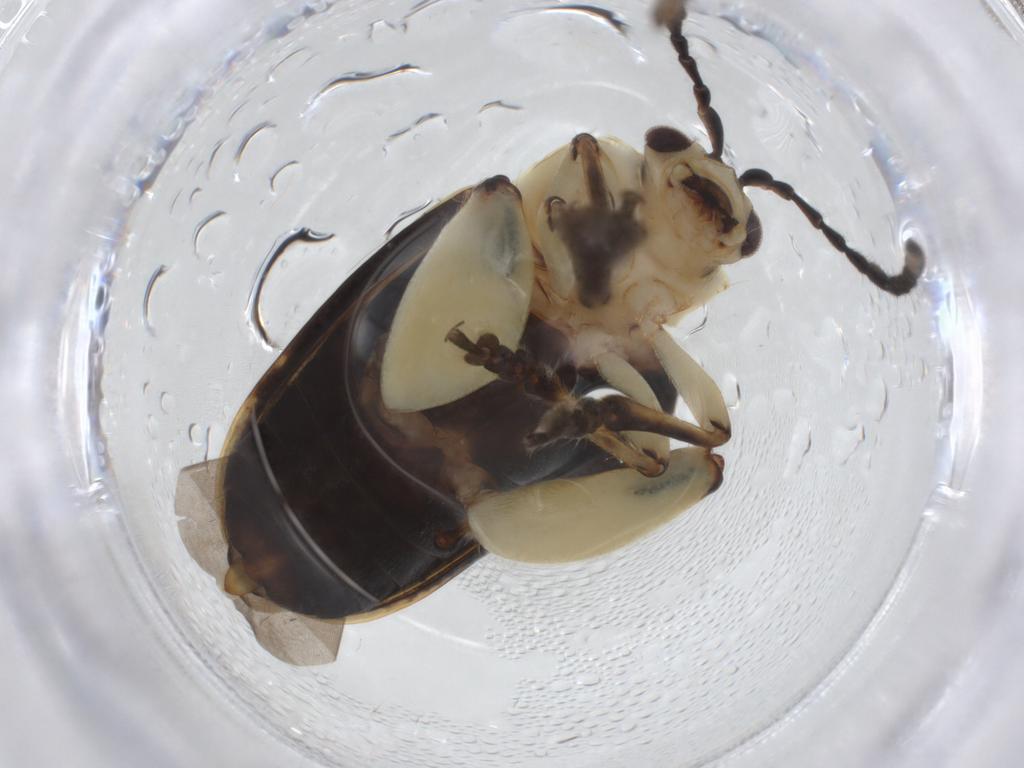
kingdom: Animalia
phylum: Arthropoda
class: Insecta
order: Coleoptera
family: Chrysomelidae
